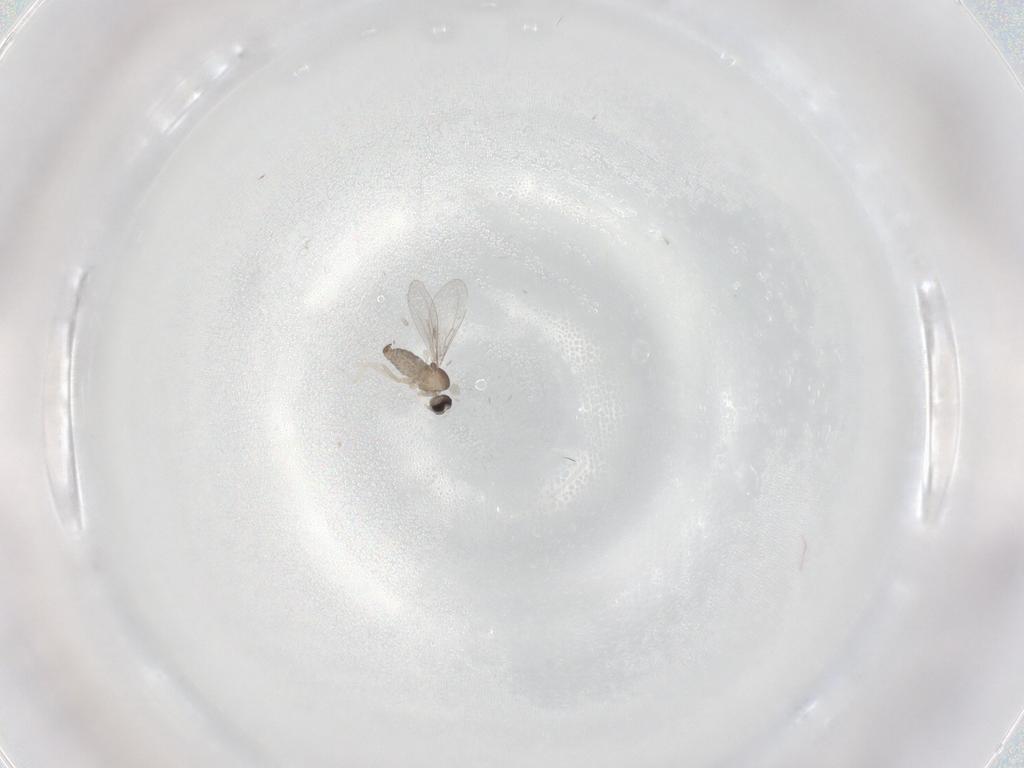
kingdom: Animalia
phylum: Arthropoda
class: Insecta
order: Diptera
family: Cecidomyiidae
